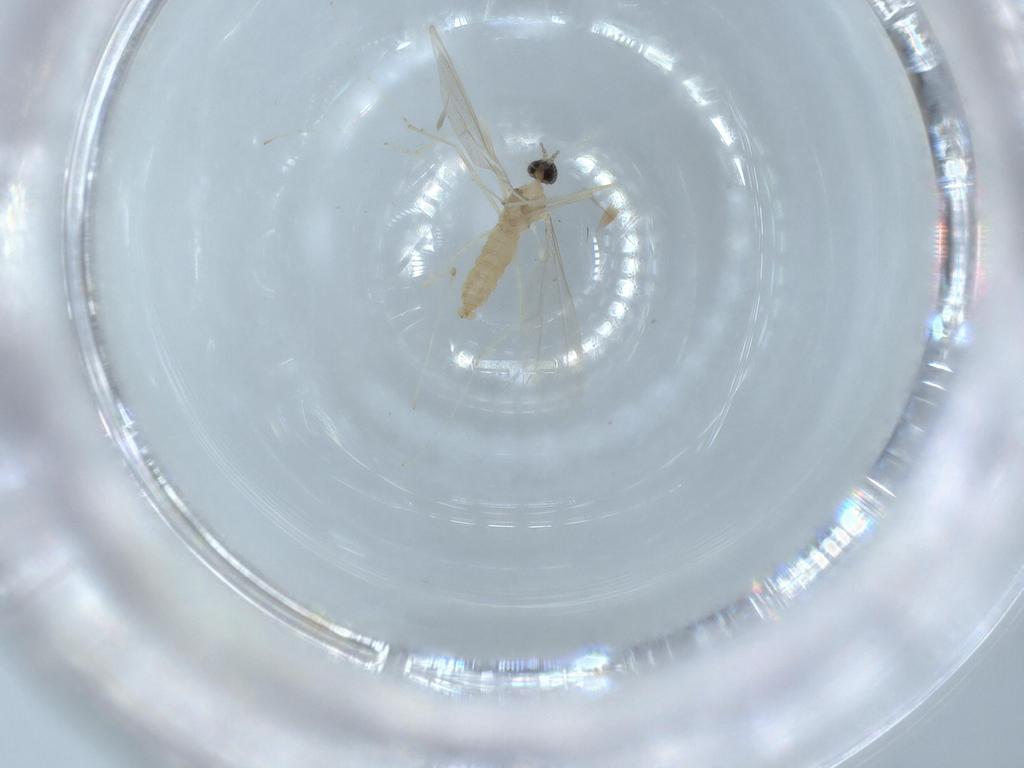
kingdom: Animalia
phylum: Arthropoda
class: Insecta
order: Diptera
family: Cecidomyiidae
